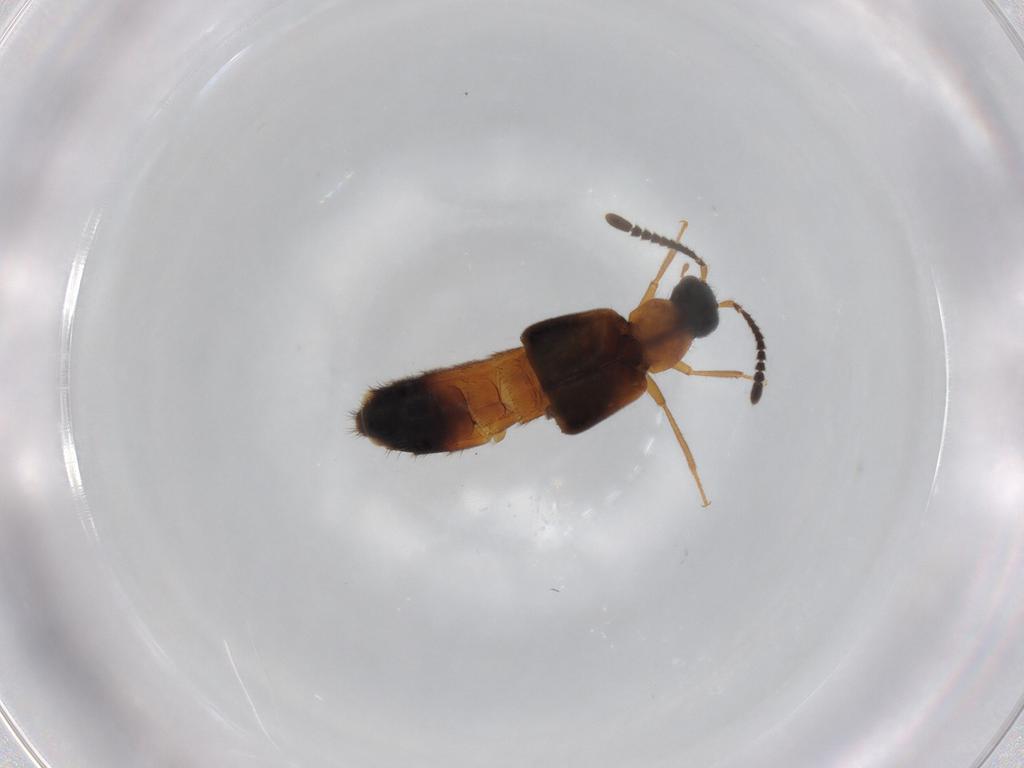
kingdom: Animalia
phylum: Arthropoda
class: Insecta
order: Coleoptera
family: Staphylinidae
